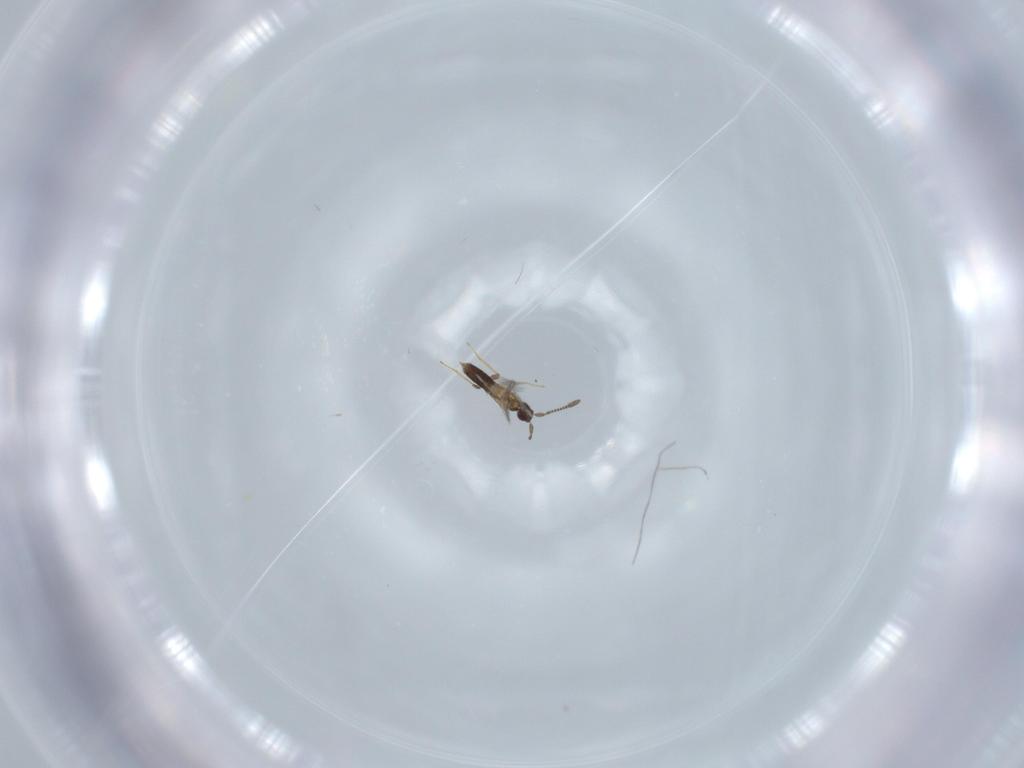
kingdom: Animalia
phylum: Arthropoda
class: Insecta
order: Hymenoptera
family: Mymaridae
